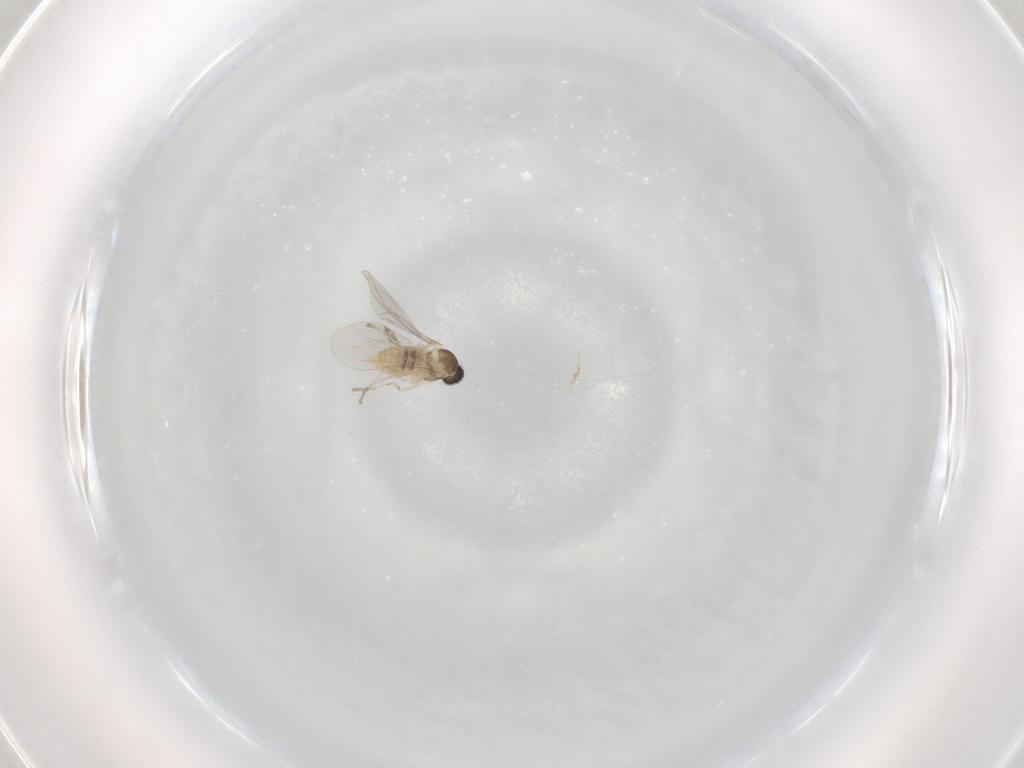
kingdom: Animalia
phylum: Arthropoda
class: Insecta
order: Diptera
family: Cecidomyiidae
